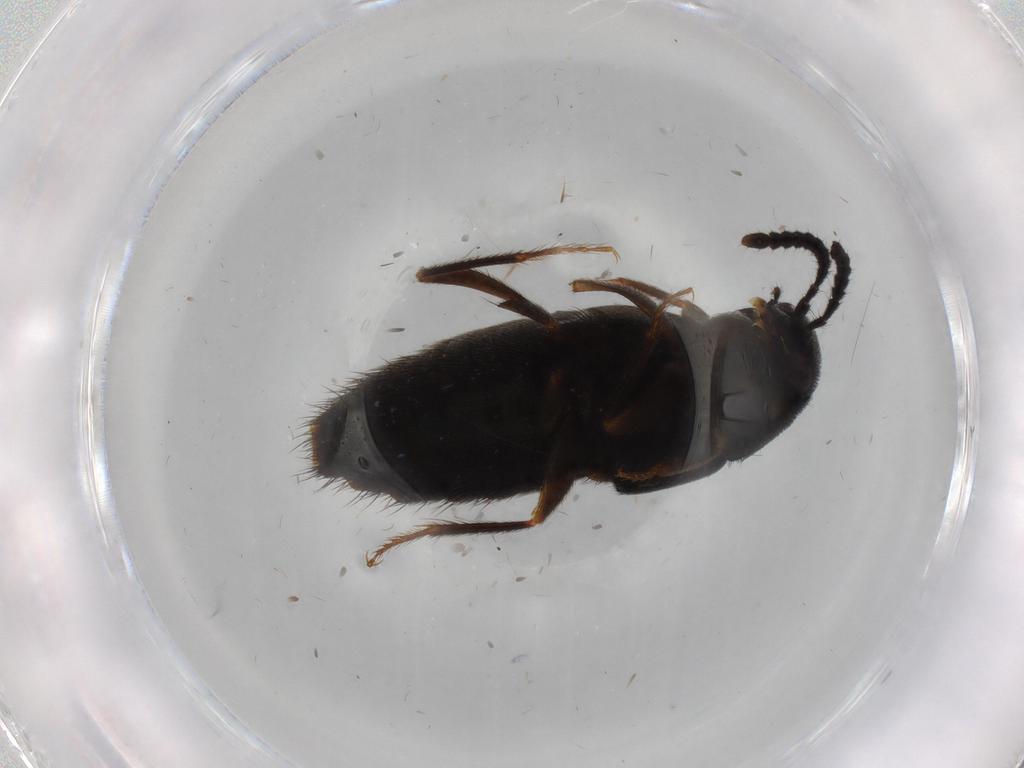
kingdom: Animalia
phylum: Arthropoda
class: Insecta
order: Coleoptera
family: Staphylinidae
